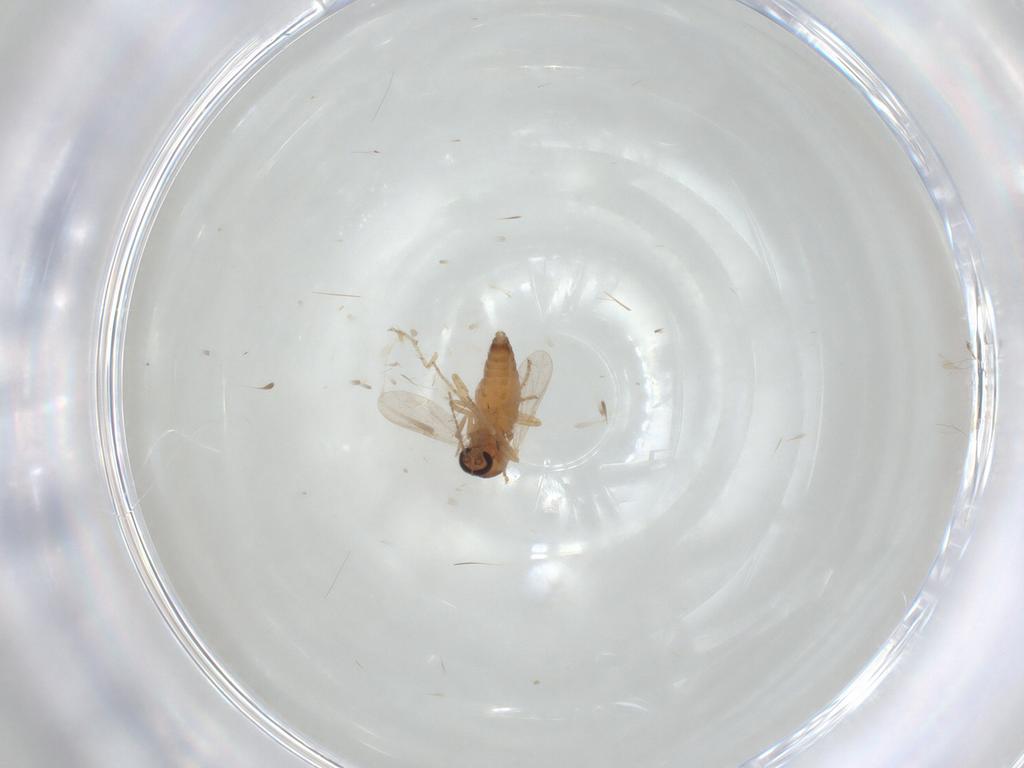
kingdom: Animalia
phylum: Arthropoda
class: Insecta
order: Diptera
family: Ceratopogonidae
